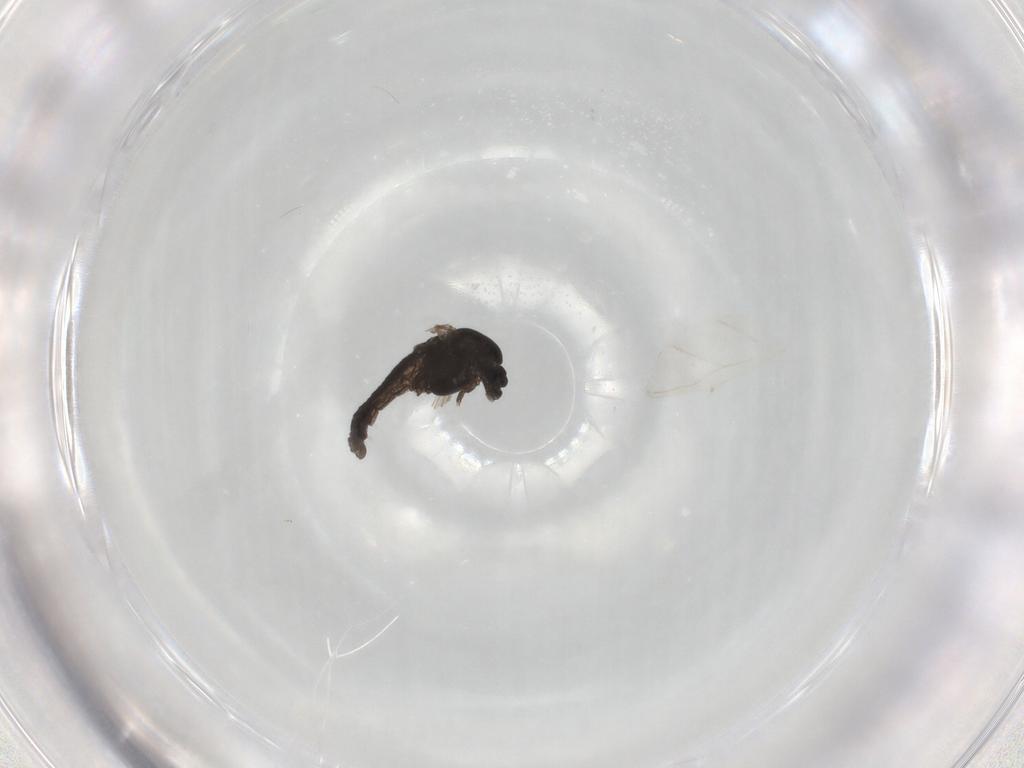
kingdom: Animalia
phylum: Arthropoda
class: Insecta
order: Diptera
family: Chironomidae
